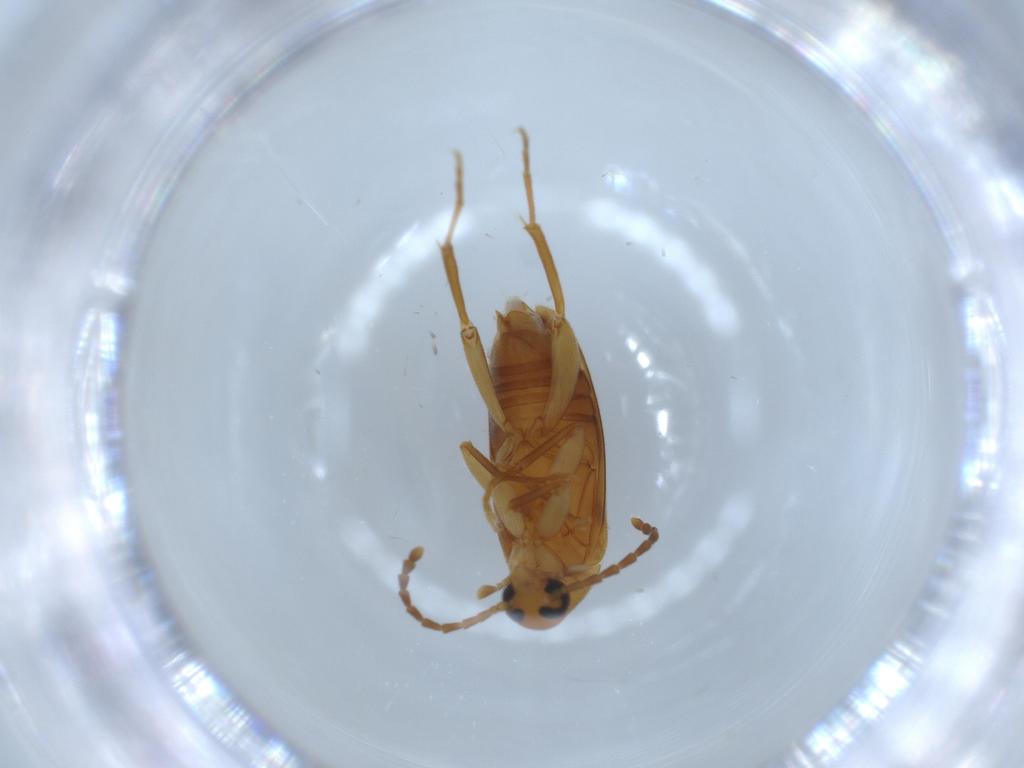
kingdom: Animalia
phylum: Arthropoda
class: Insecta
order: Coleoptera
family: Scraptiidae
